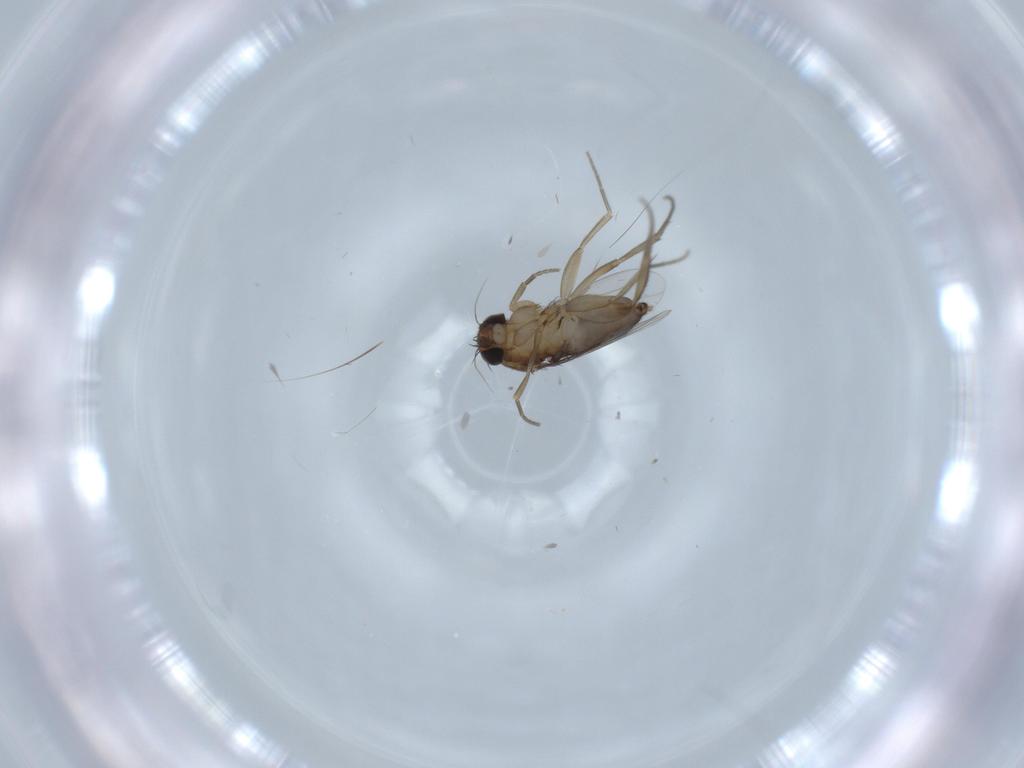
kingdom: Animalia
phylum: Arthropoda
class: Insecta
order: Diptera
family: Phoridae
